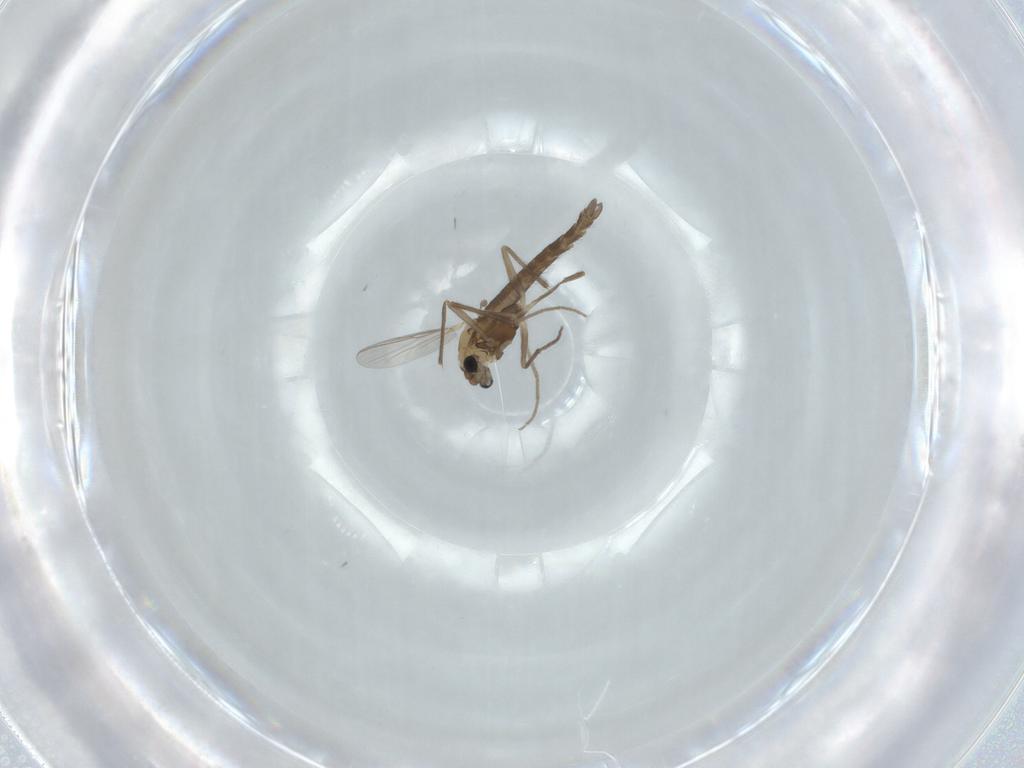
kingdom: Animalia
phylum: Arthropoda
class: Insecta
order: Diptera
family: Chironomidae
